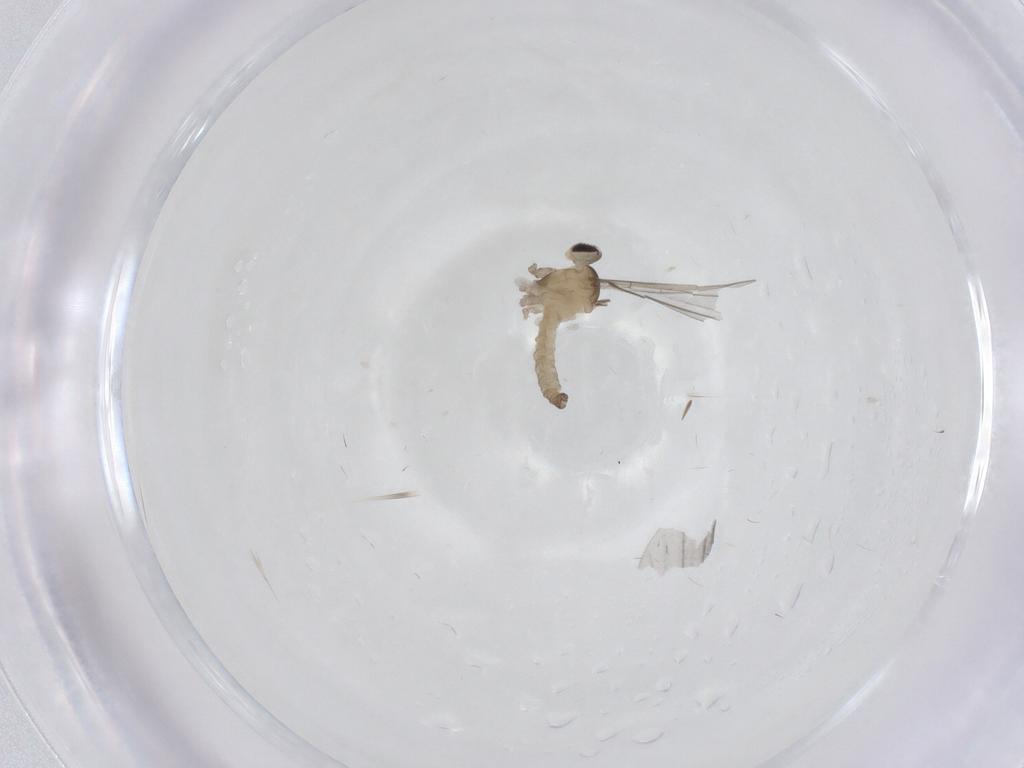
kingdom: Animalia
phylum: Arthropoda
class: Insecta
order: Diptera
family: Cecidomyiidae
